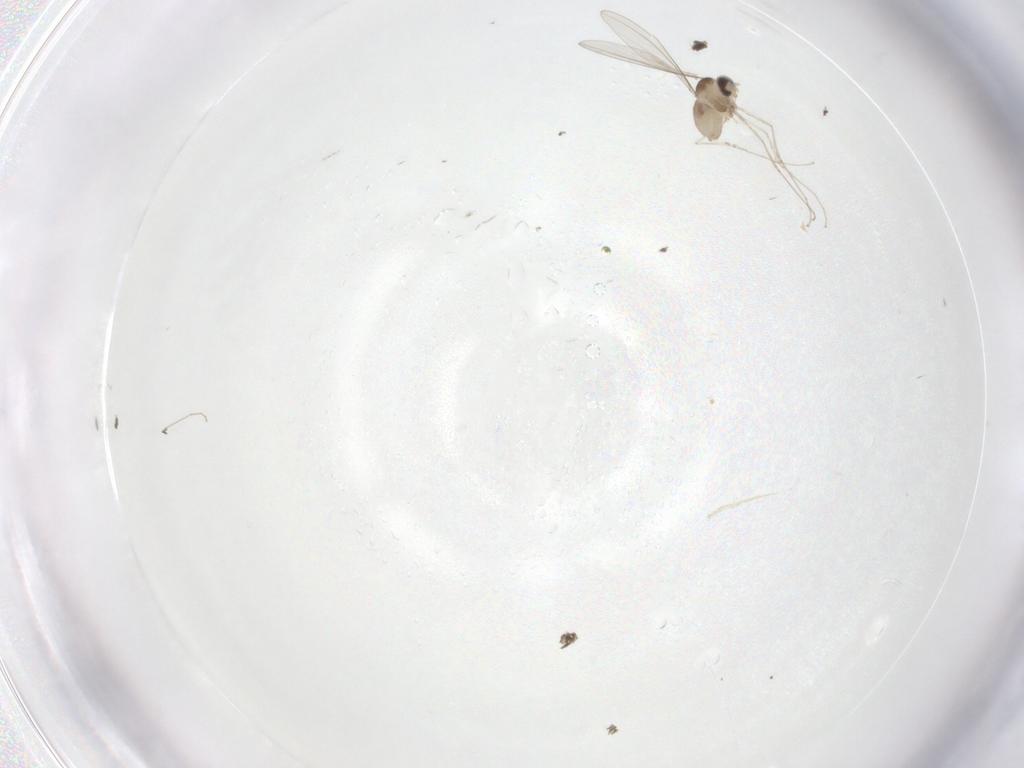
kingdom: Animalia
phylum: Arthropoda
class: Insecta
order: Diptera
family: Cecidomyiidae
